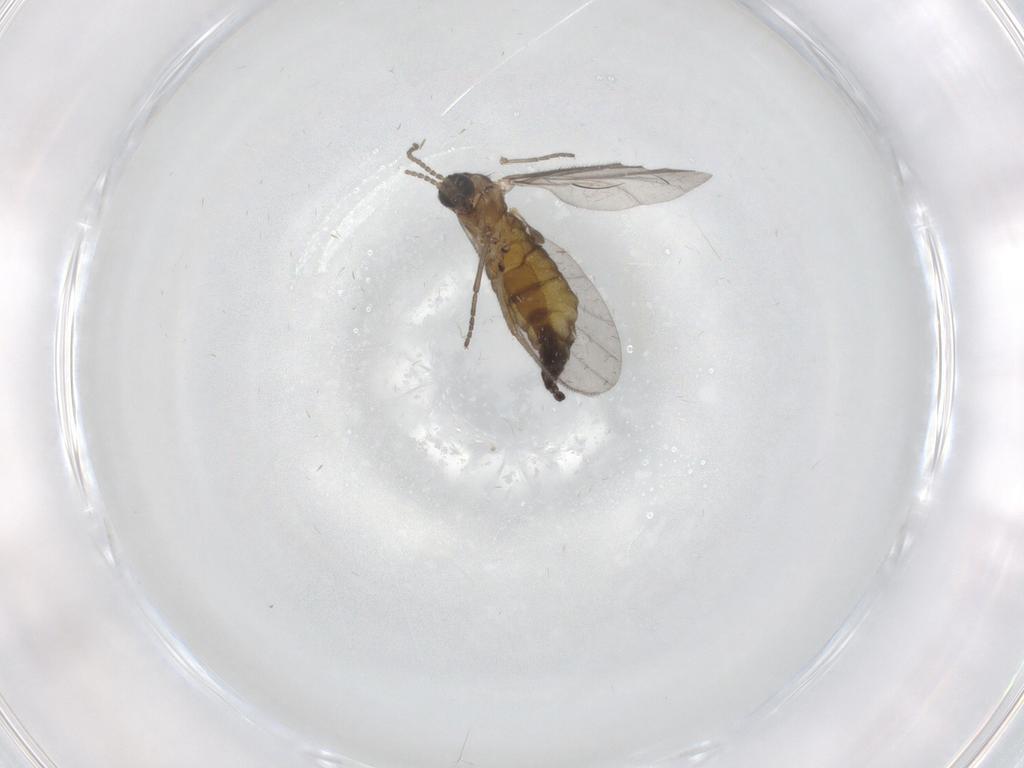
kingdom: Animalia
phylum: Arthropoda
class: Insecta
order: Diptera
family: Sciaridae
